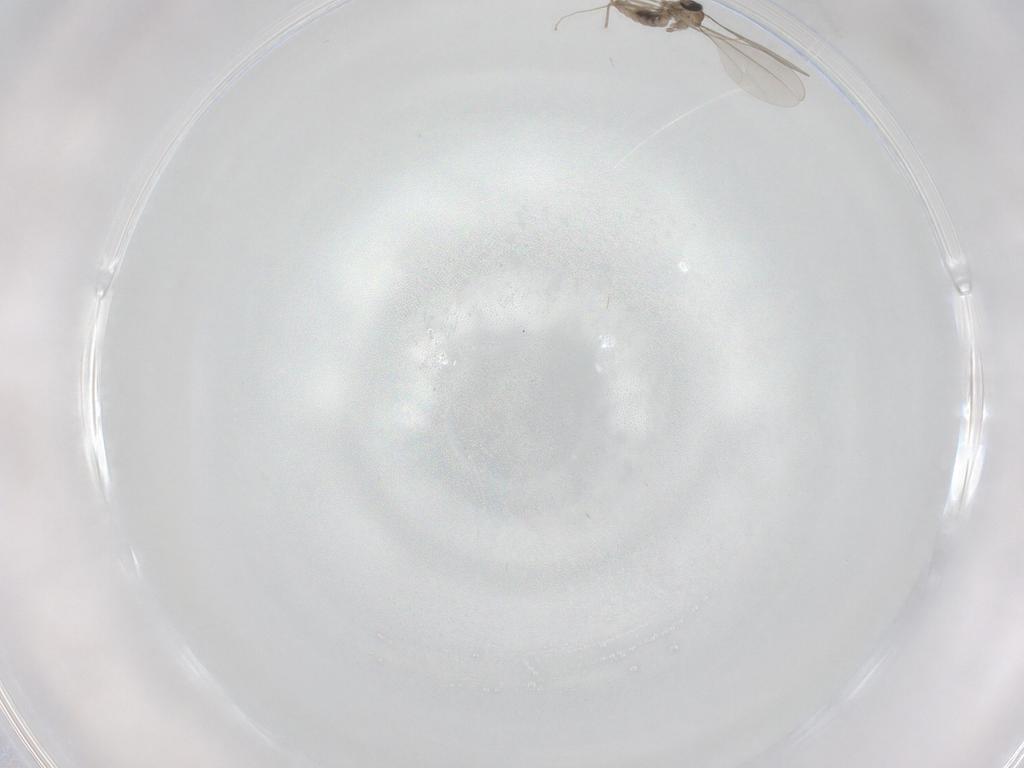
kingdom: Animalia
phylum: Arthropoda
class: Insecta
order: Diptera
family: Cecidomyiidae
